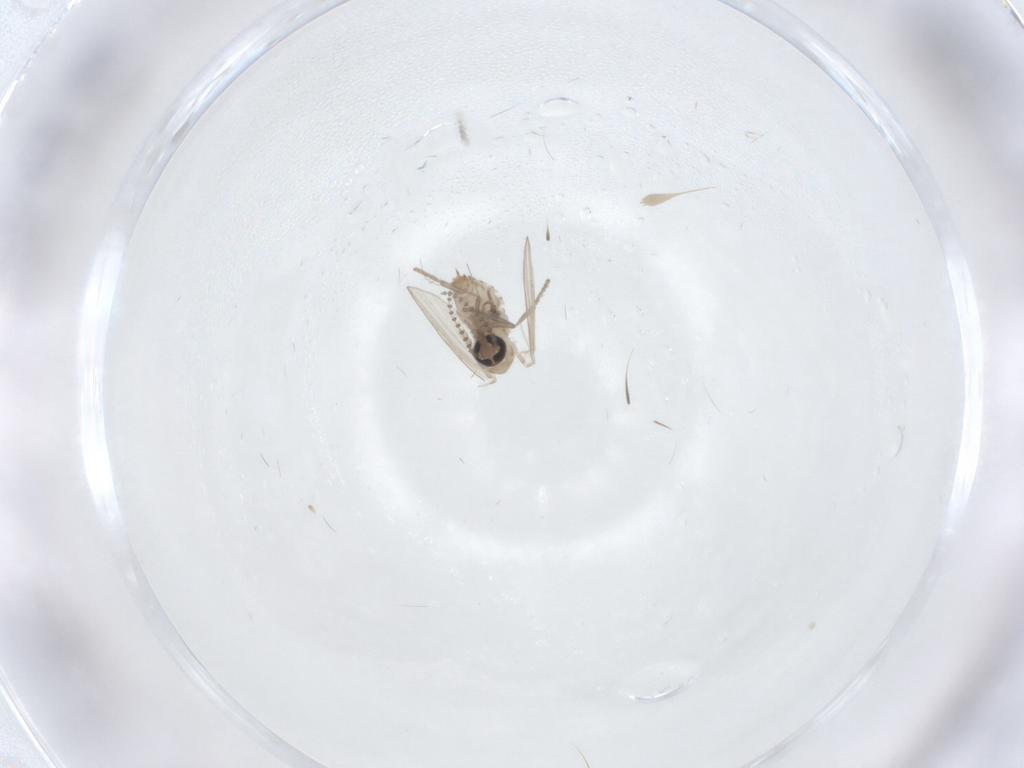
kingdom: Animalia
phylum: Arthropoda
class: Insecta
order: Diptera
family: Psychodidae
